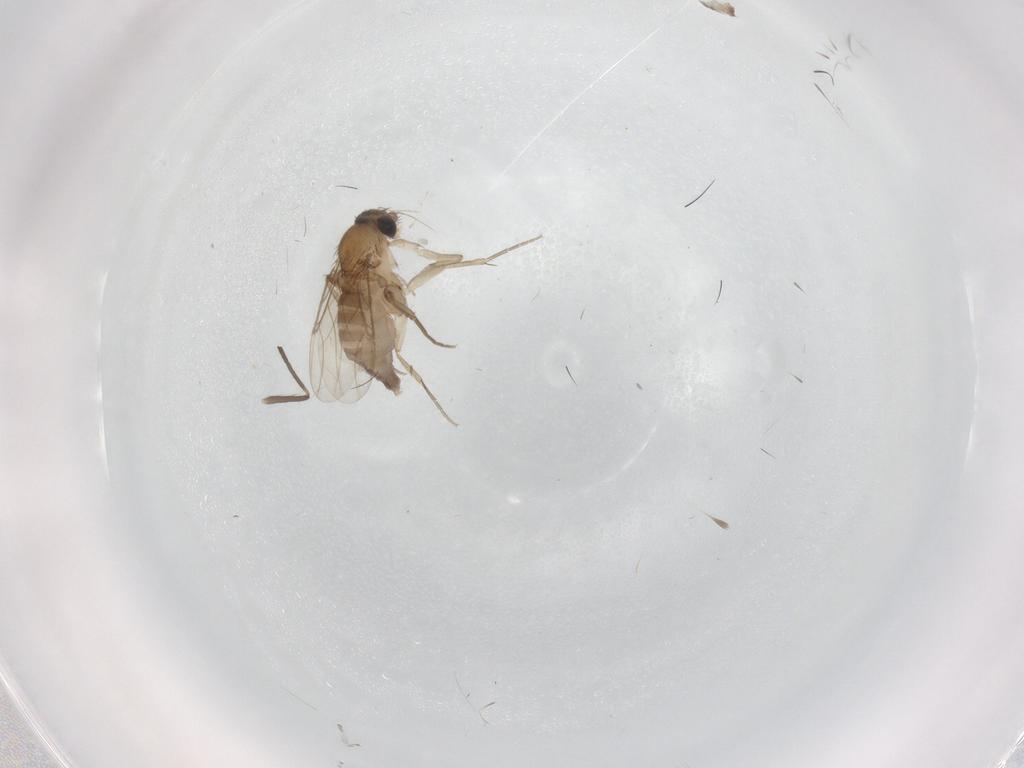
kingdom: Animalia
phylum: Arthropoda
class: Insecta
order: Diptera
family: Phoridae
